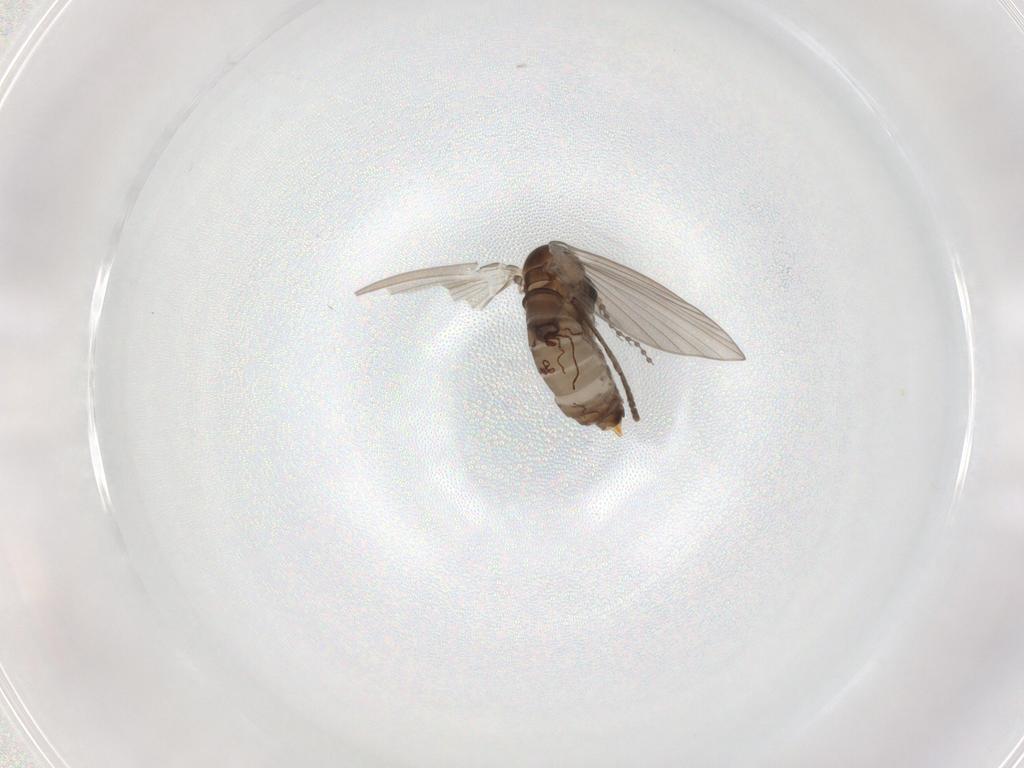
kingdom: Animalia
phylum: Arthropoda
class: Insecta
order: Diptera
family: Psychodidae
